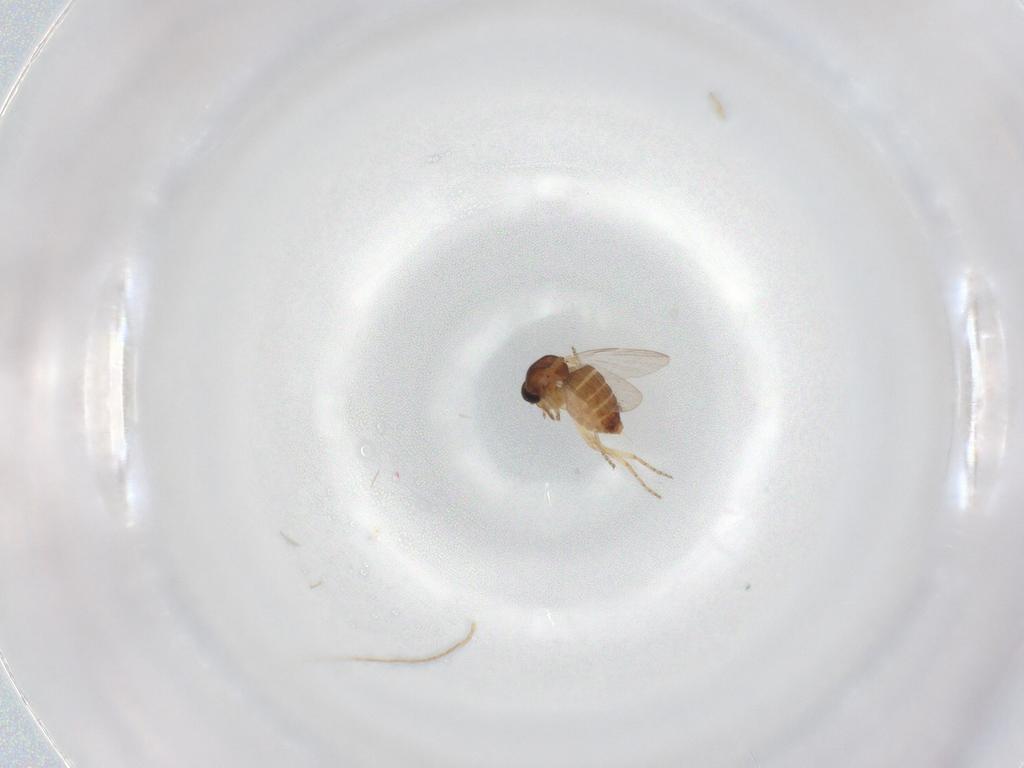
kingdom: Animalia
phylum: Arthropoda
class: Insecta
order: Diptera
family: Ceratopogonidae
